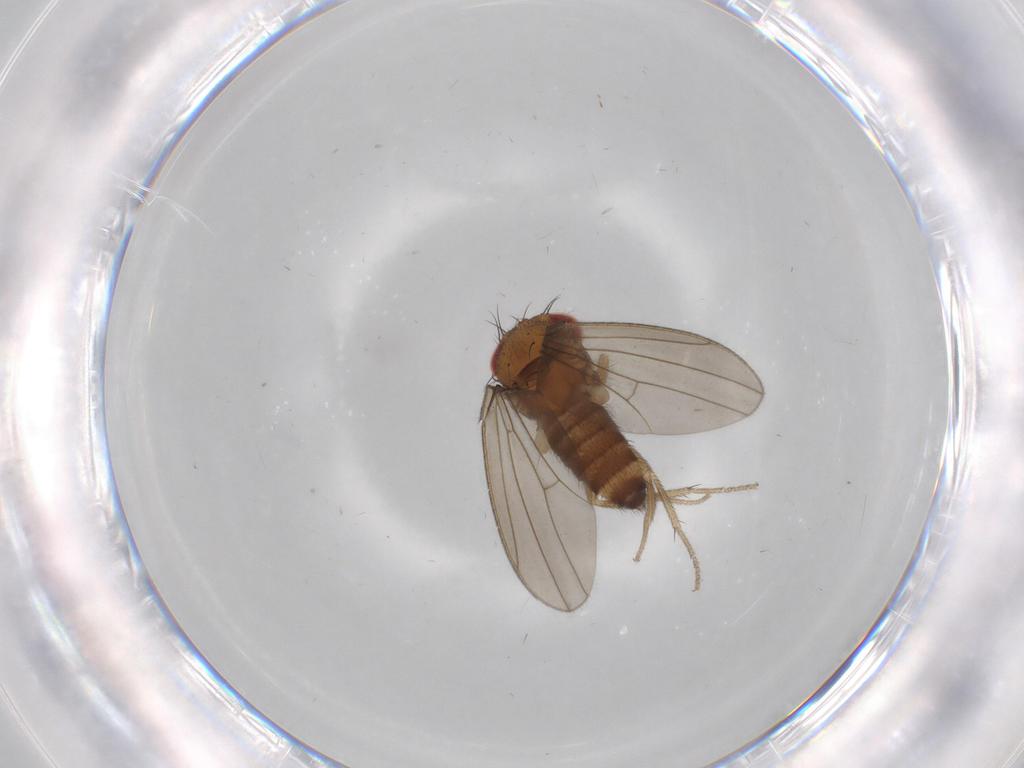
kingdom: Animalia
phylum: Arthropoda
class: Insecta
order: Diptera
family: Drosophilidae
